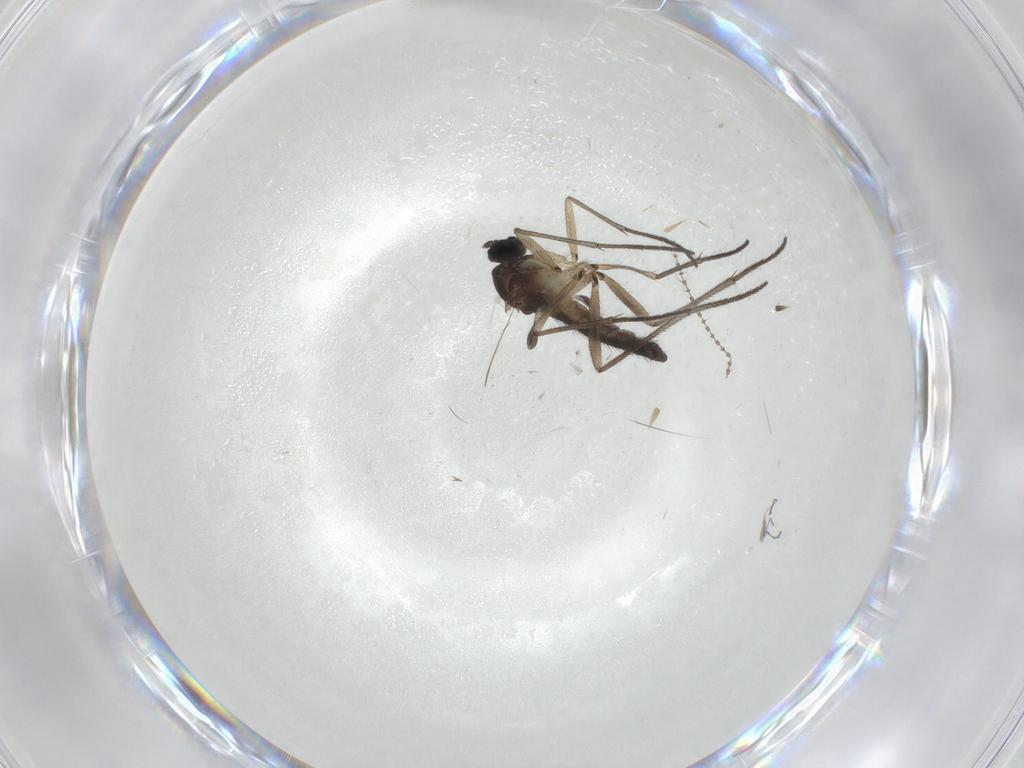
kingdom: Animalia
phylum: Arthropoda
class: Insecta
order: Diptera
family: Sciaridae
